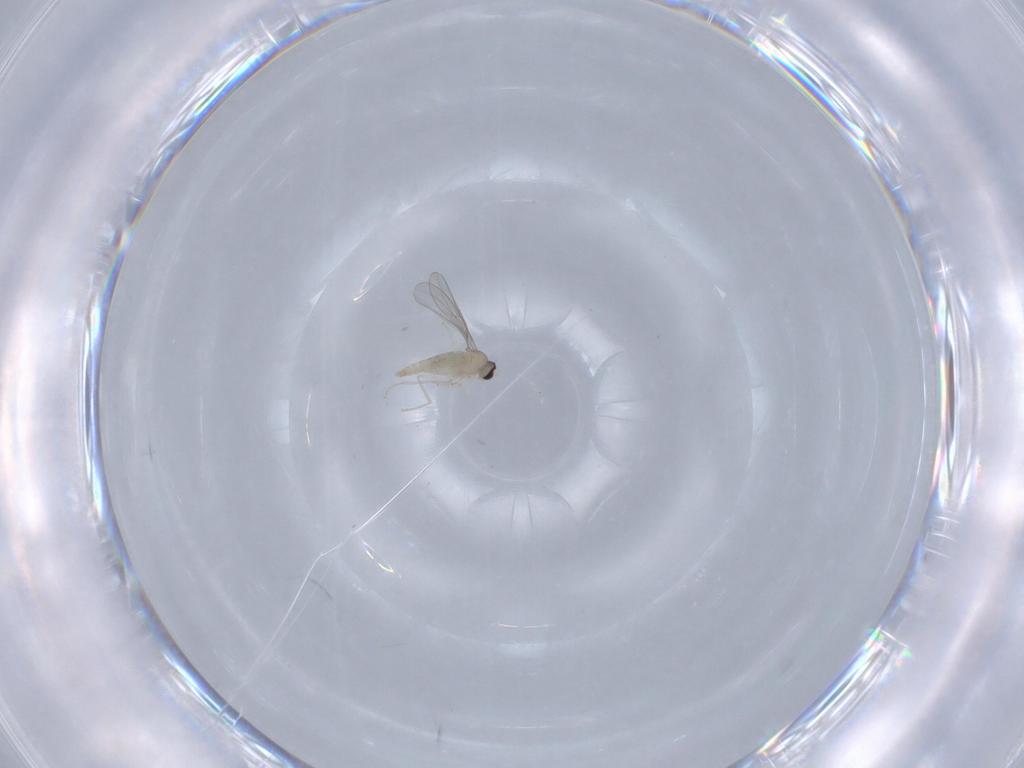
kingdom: Animalia
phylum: Arthropoda
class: Insecta
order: Diptera
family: Cecidomyiidae
